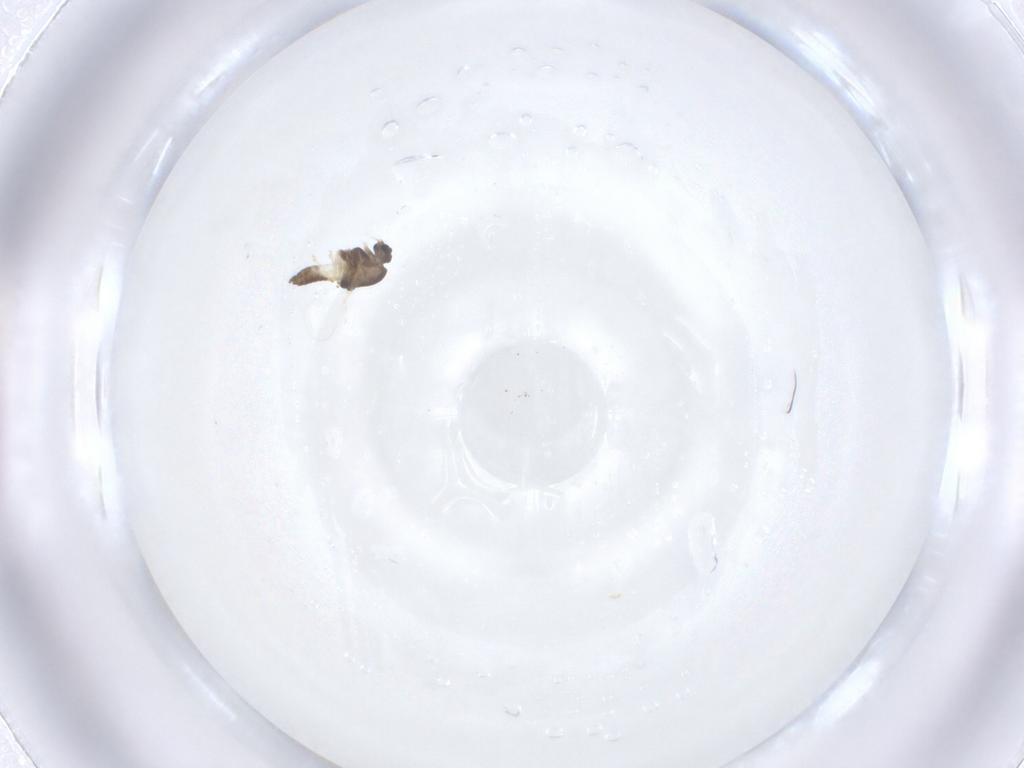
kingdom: Animalia
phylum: Arthropoda
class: Insecta
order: Diptera
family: Chironomidae
